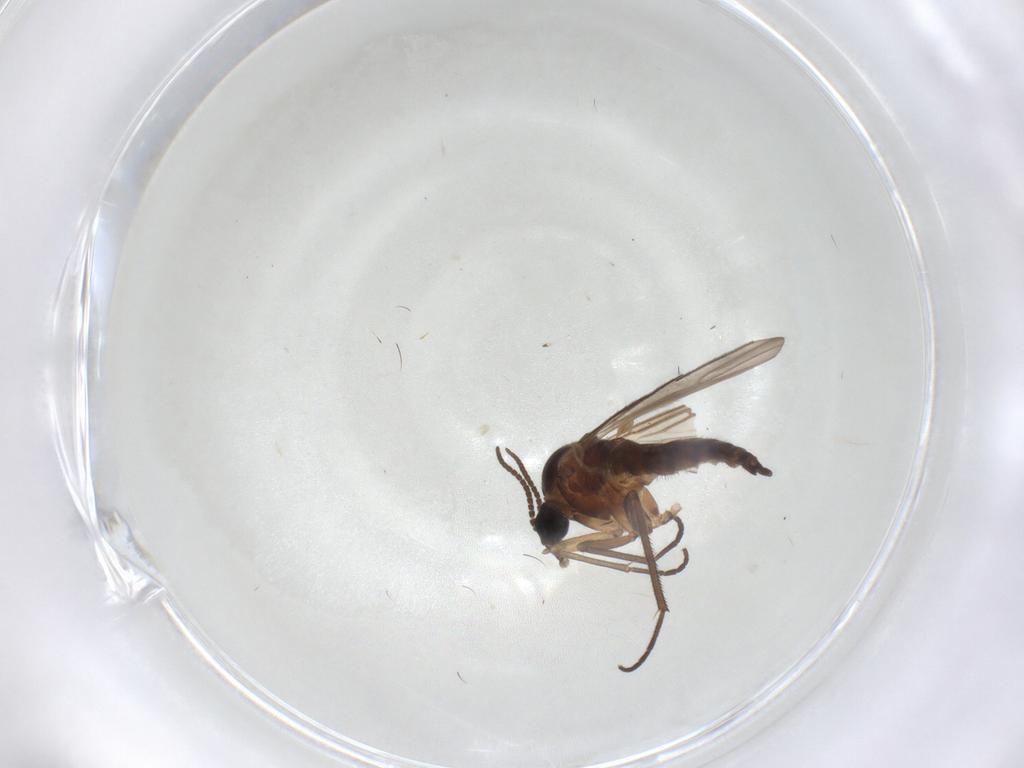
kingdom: Animalia
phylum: Arthropoda
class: Insecta
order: Diptera
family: Sciaridae
